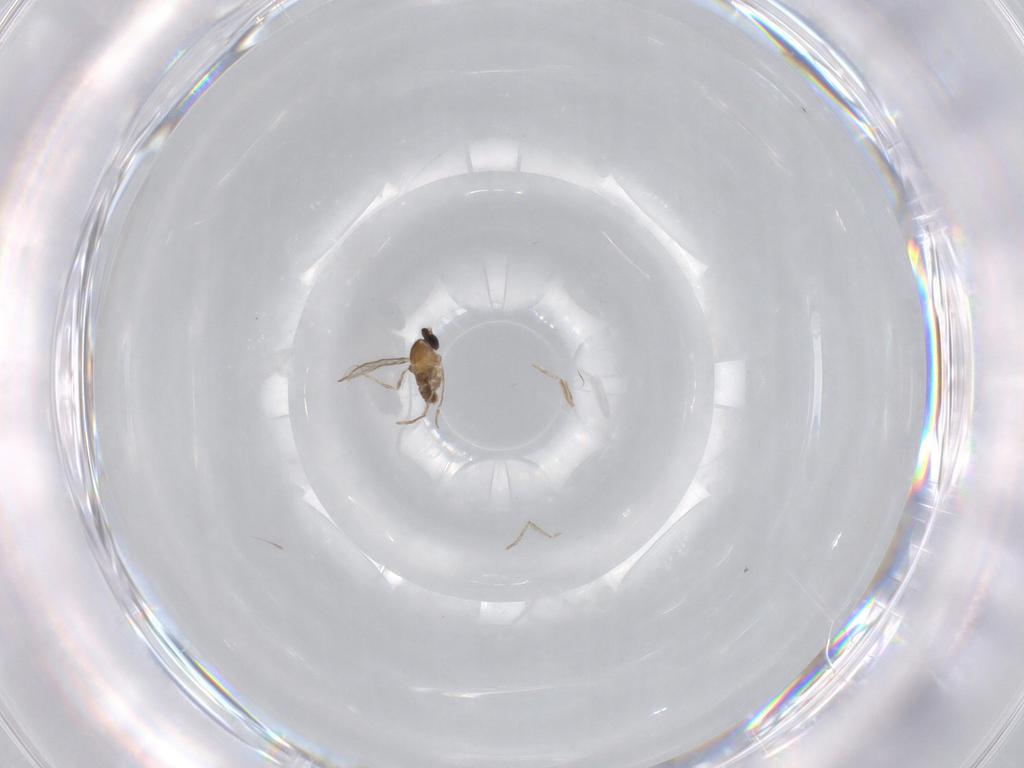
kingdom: Animalia
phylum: Arthropoda
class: Insecta
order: Diptera
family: Cecidomyiidae
